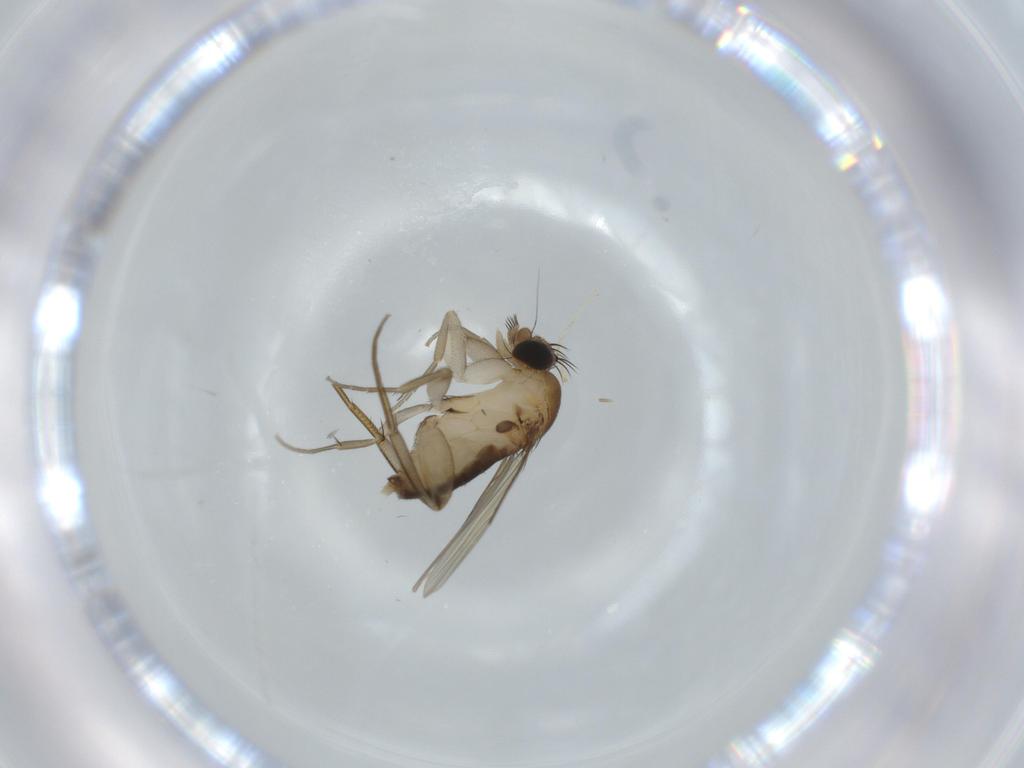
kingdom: Animalia
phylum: Arthropoda
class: Insecta
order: Diptera
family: Phoridae
